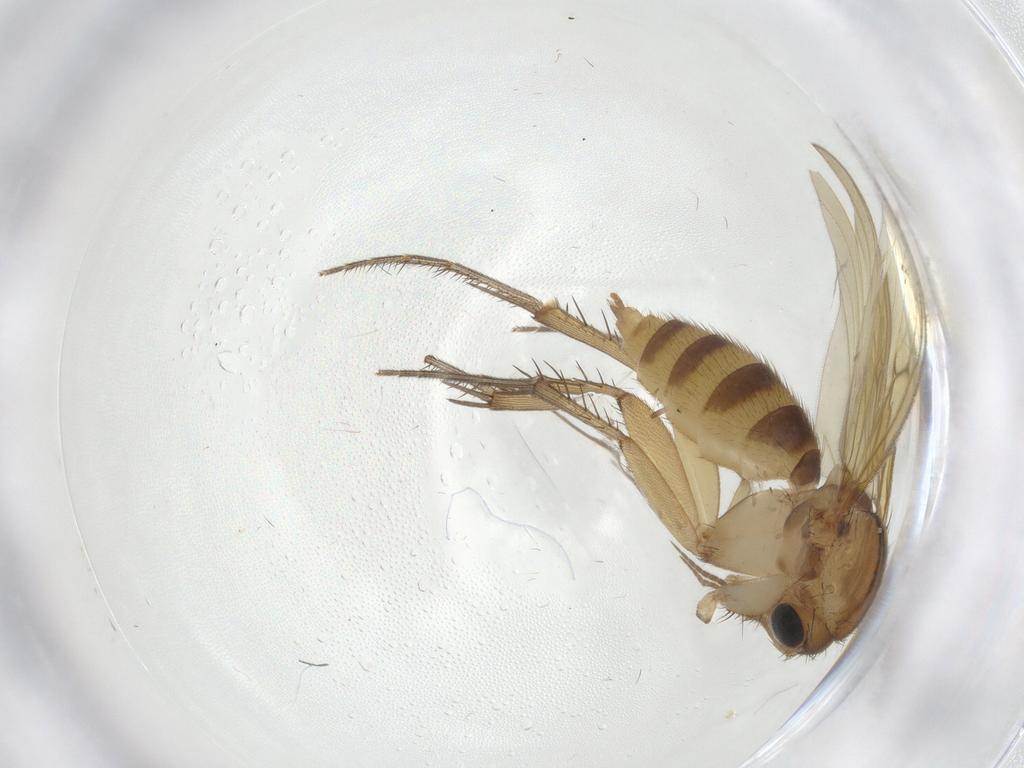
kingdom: Animalia
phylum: Arthropoda
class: Insecta
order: Diptera
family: Mycetophilidae
